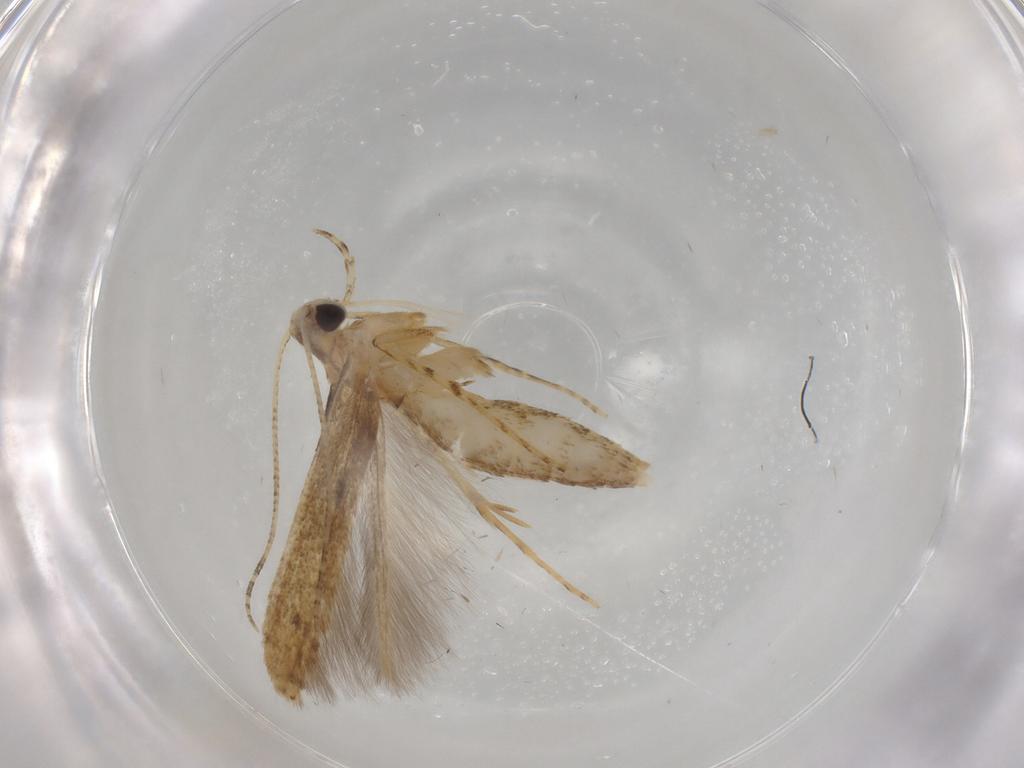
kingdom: Animalia
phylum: Arthropoda
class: Insecta
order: Lepidoptera
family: Batrachedridae
